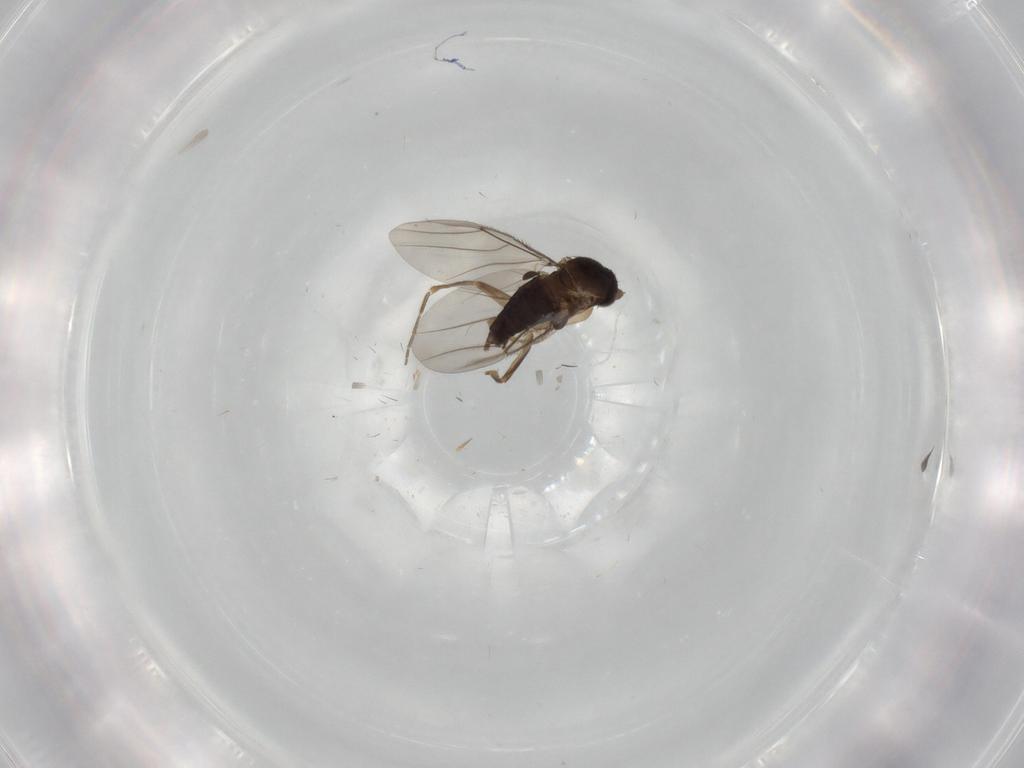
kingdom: Animalia
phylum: Arthropoda
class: Insecta
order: Diptera
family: Phoridae
